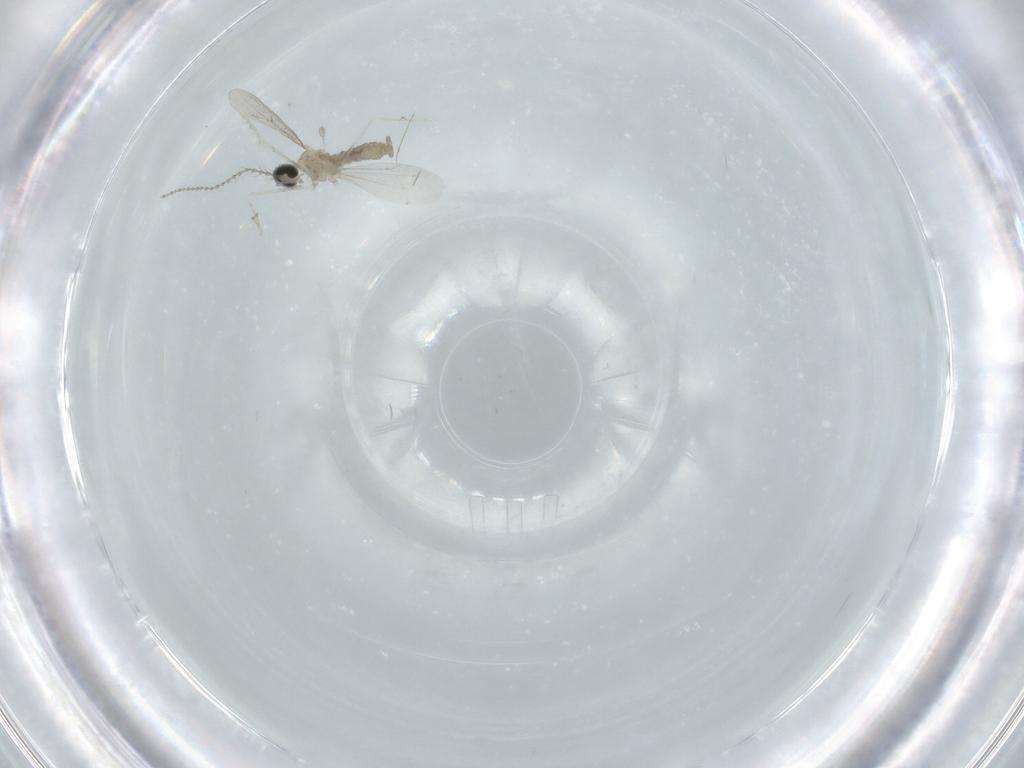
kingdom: Animalia
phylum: Arthropoda
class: Insecta
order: Diptera
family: Cecidomyiidae
